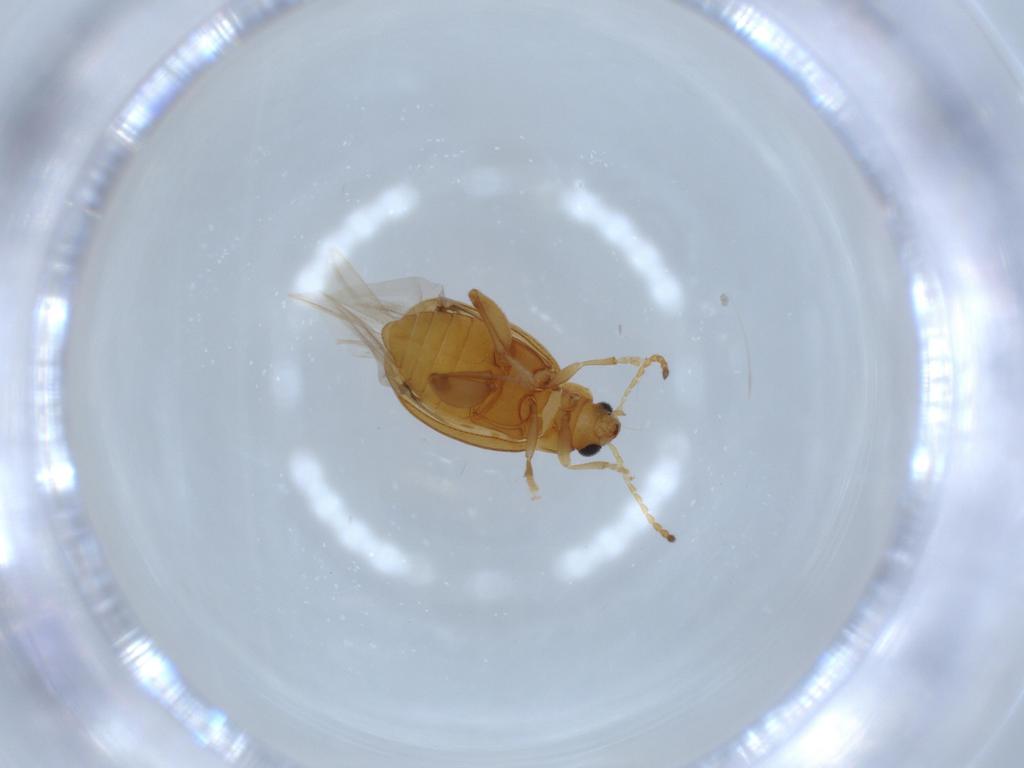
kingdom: Animalia
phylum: Arthropoda
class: Insecta
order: Coleoptera
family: Chrysomelidae
